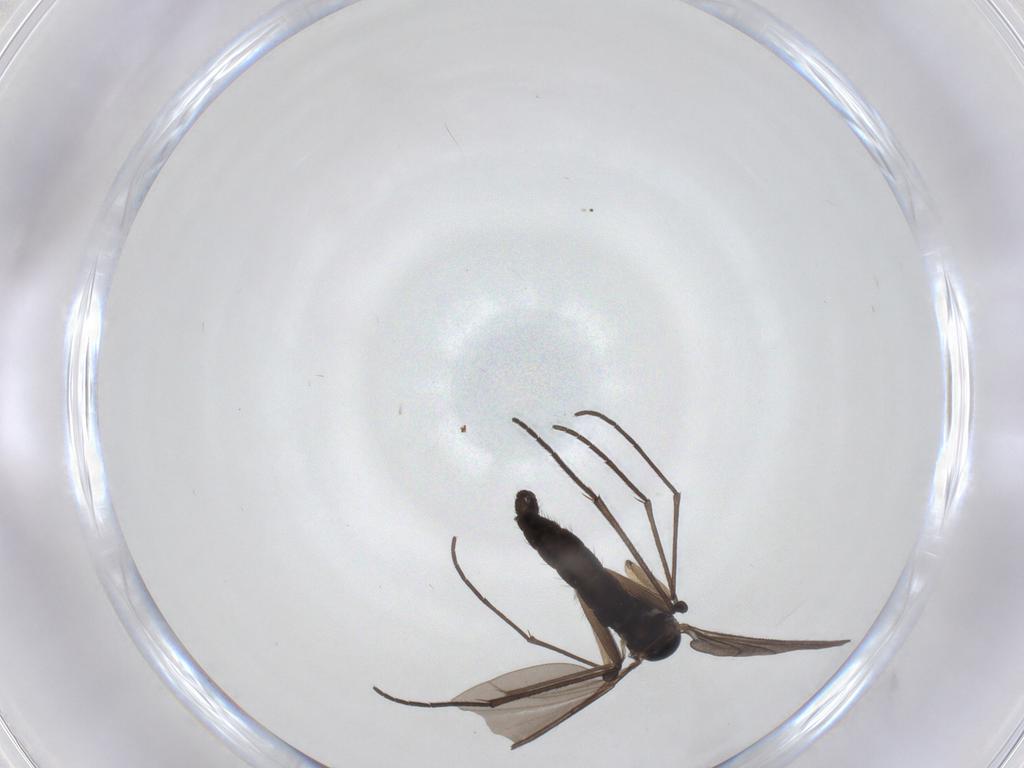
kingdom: Animalia
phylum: Arthropoda
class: Insecta
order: Diptera
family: Sciaridae
